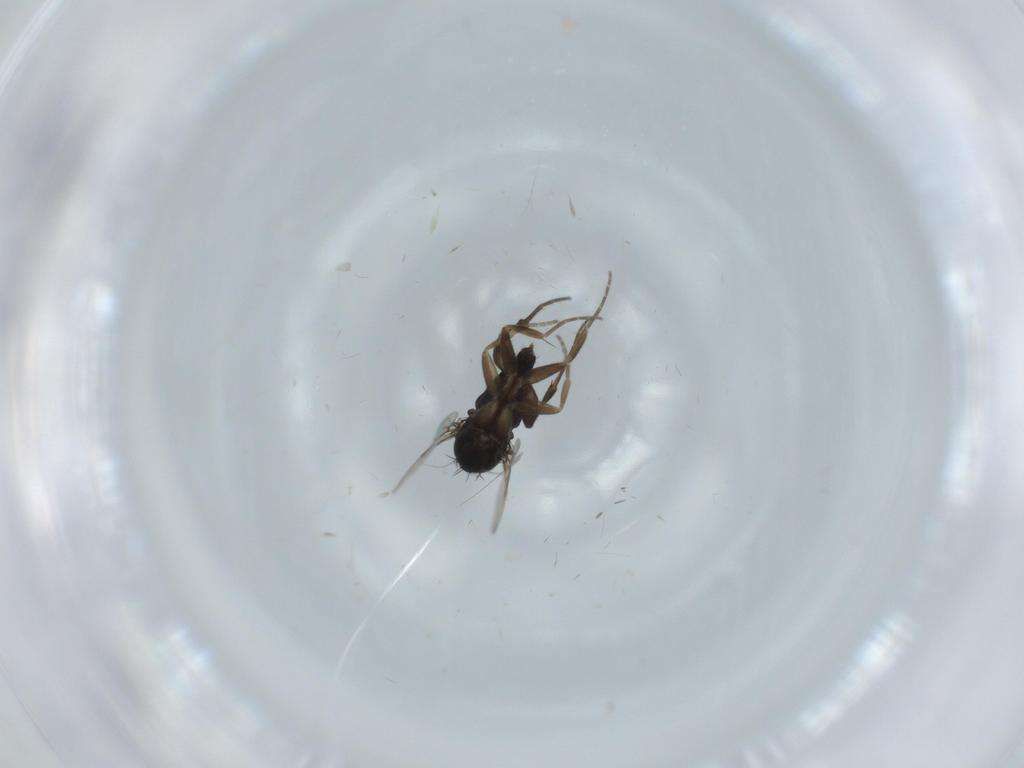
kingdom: Animalia
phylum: Arthropoda
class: Insecta
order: Diptera
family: Phoridae
